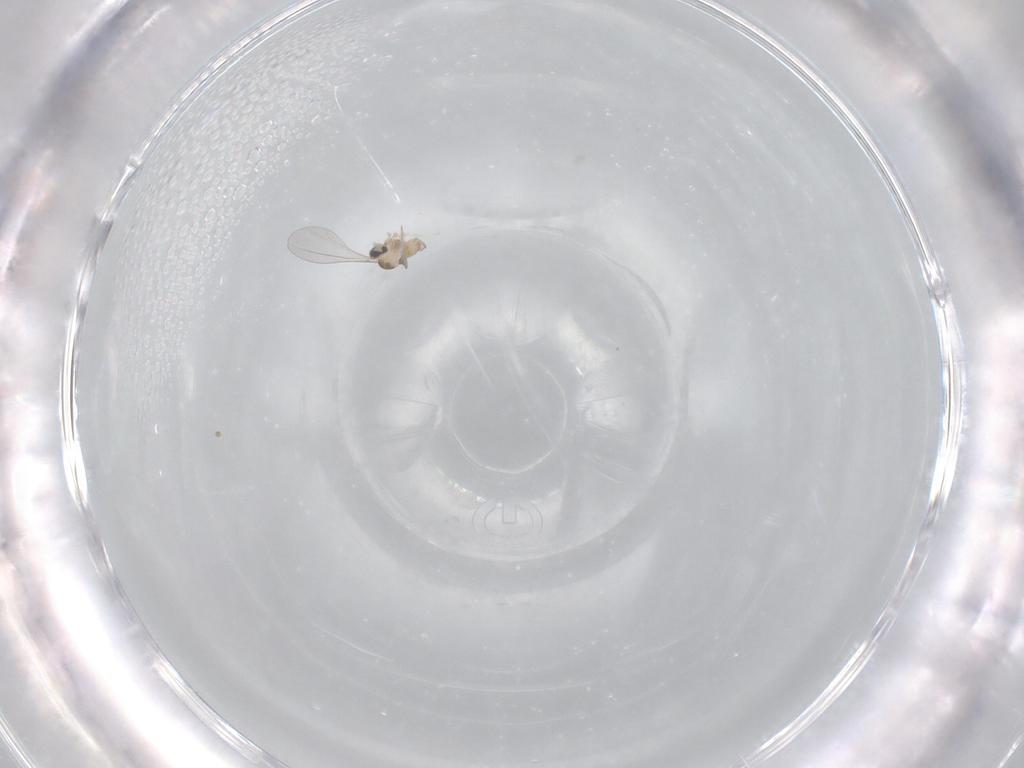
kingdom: Animalia
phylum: Arthropoda
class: Insecta
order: Diptera
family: Cecidomyiidae
